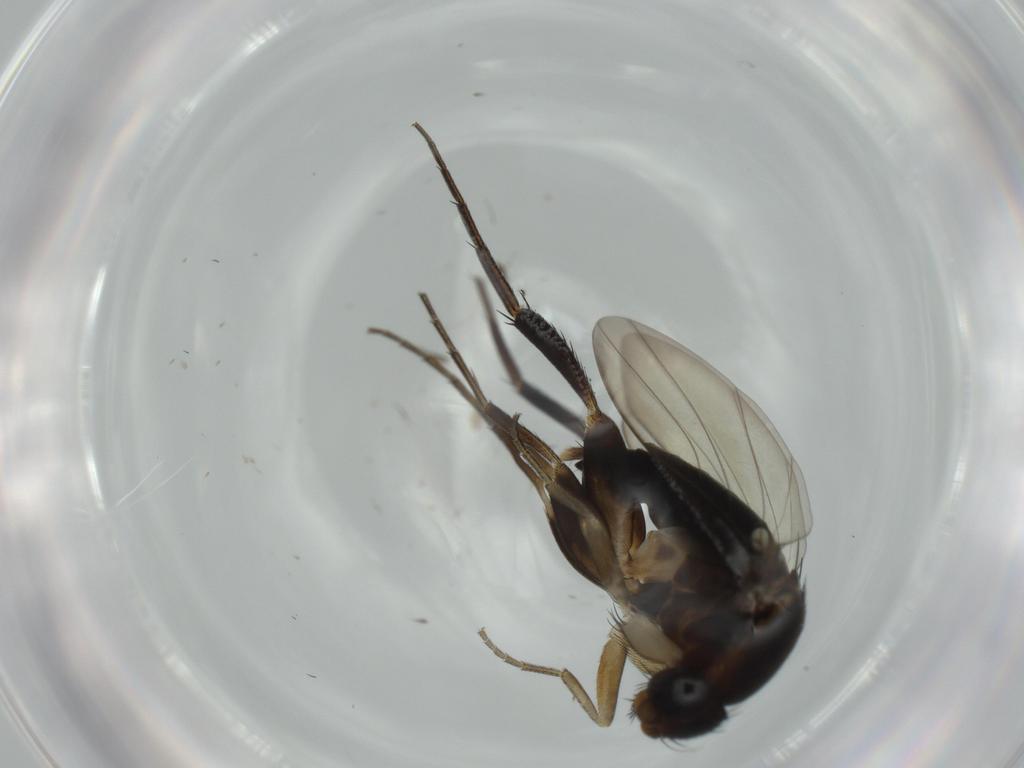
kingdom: Animalia
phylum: Arthropoda
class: Insecta
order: Diptera
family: Phoridae
